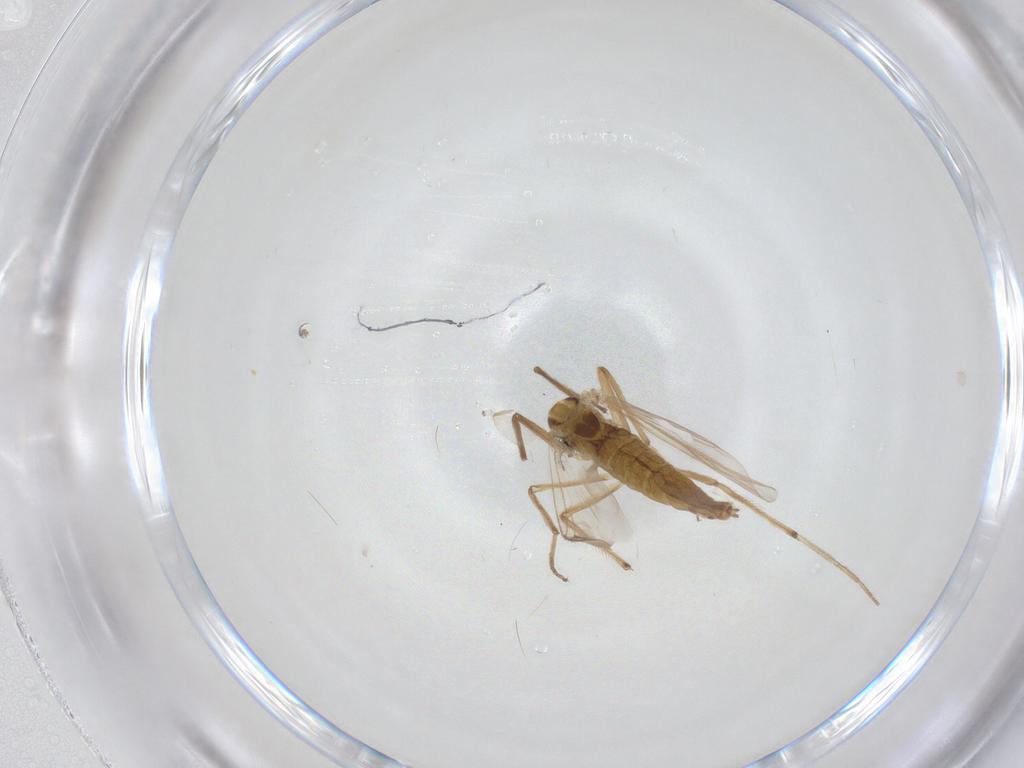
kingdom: Animalia
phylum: Arthropoda
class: Insecta
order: Diptera
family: Chironomidae
